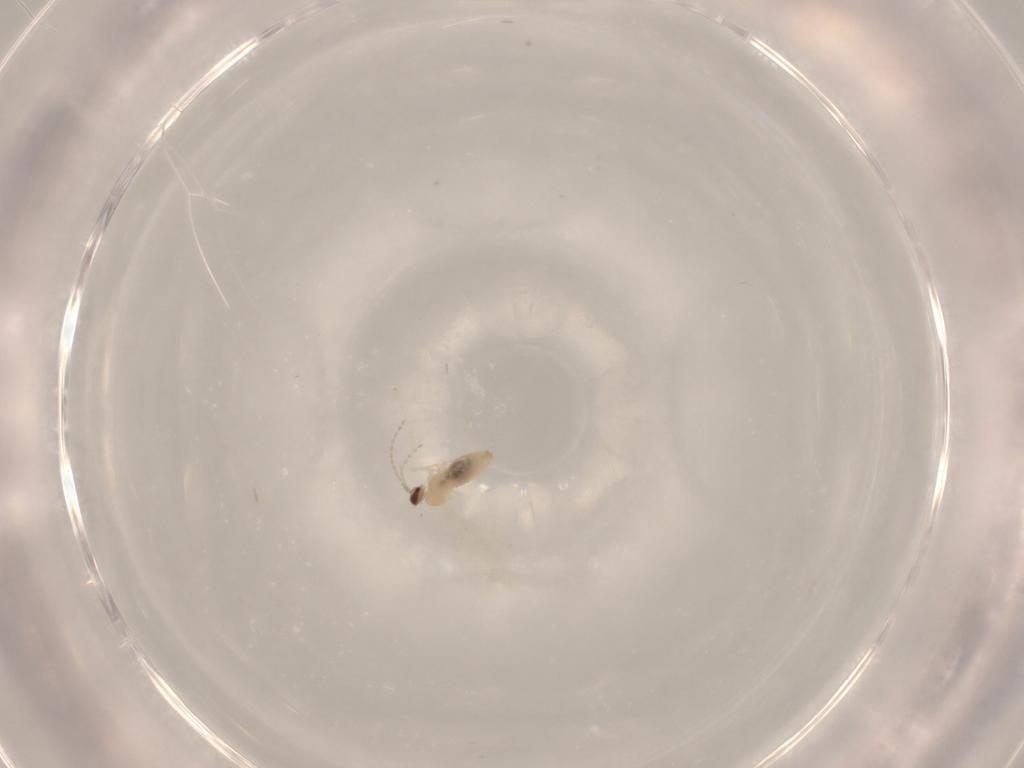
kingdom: Animalia
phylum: Arthropoda
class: Insecta
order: Diptera
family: Cecidomyiidae
